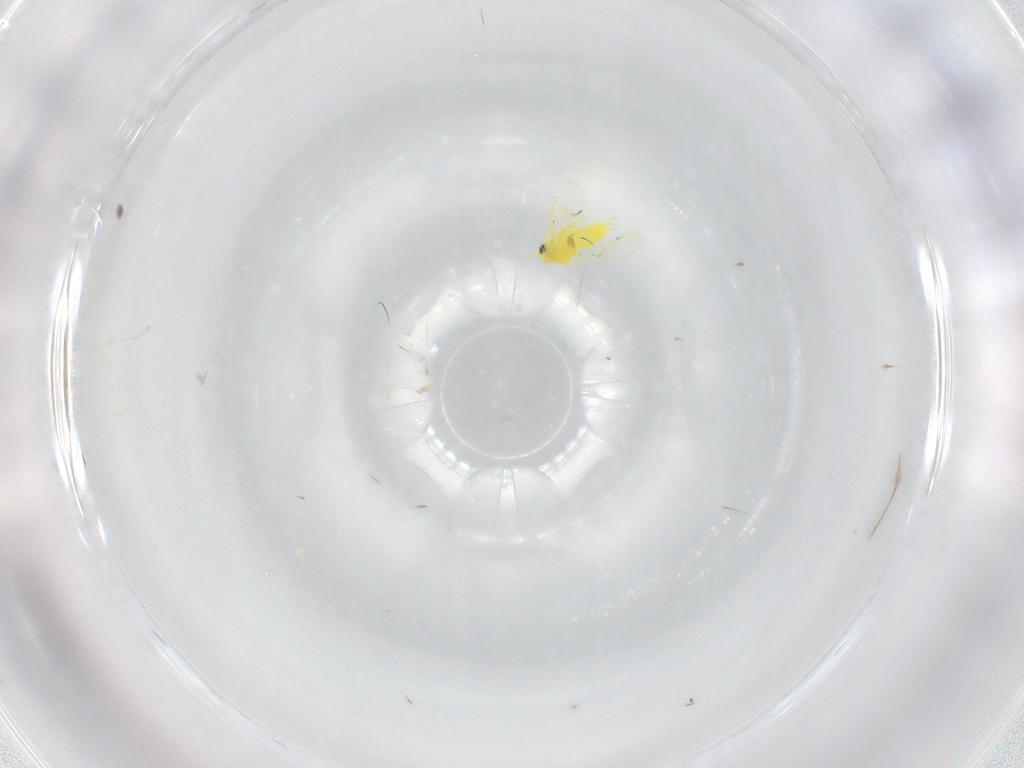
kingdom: Animalia
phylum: Arthropoda
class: Insecta
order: Hemiptera
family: Aleyrodidae
